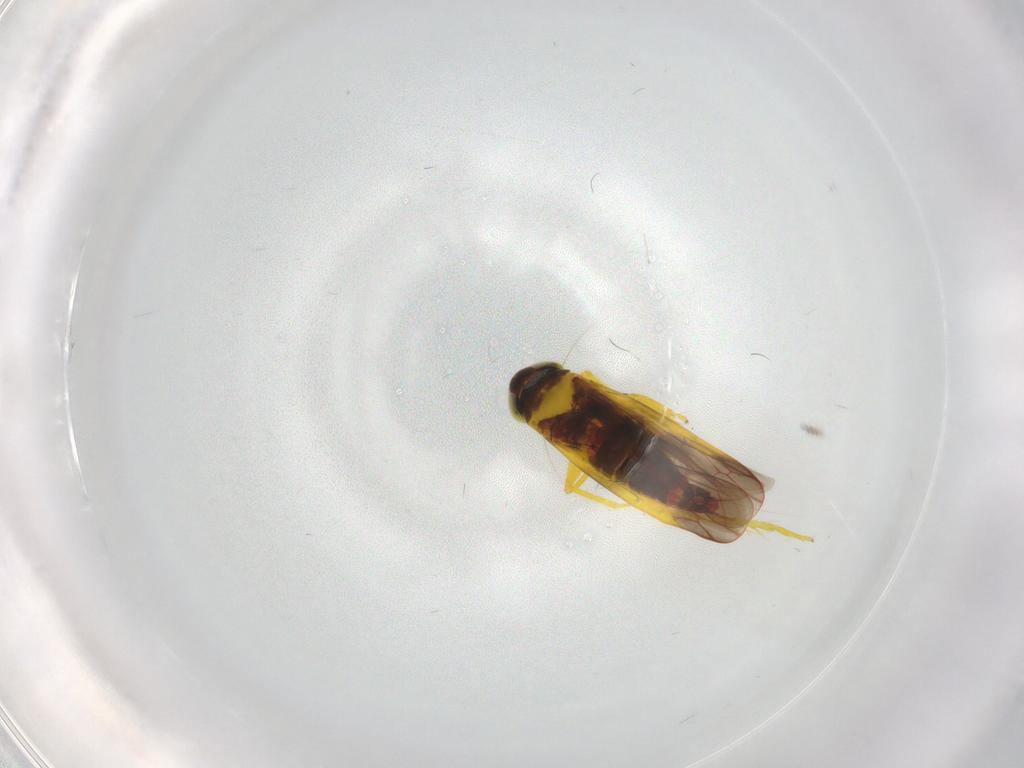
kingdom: Animalia
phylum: Arthropoda
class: Insecta
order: Hemiptera
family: Cicadellidae
